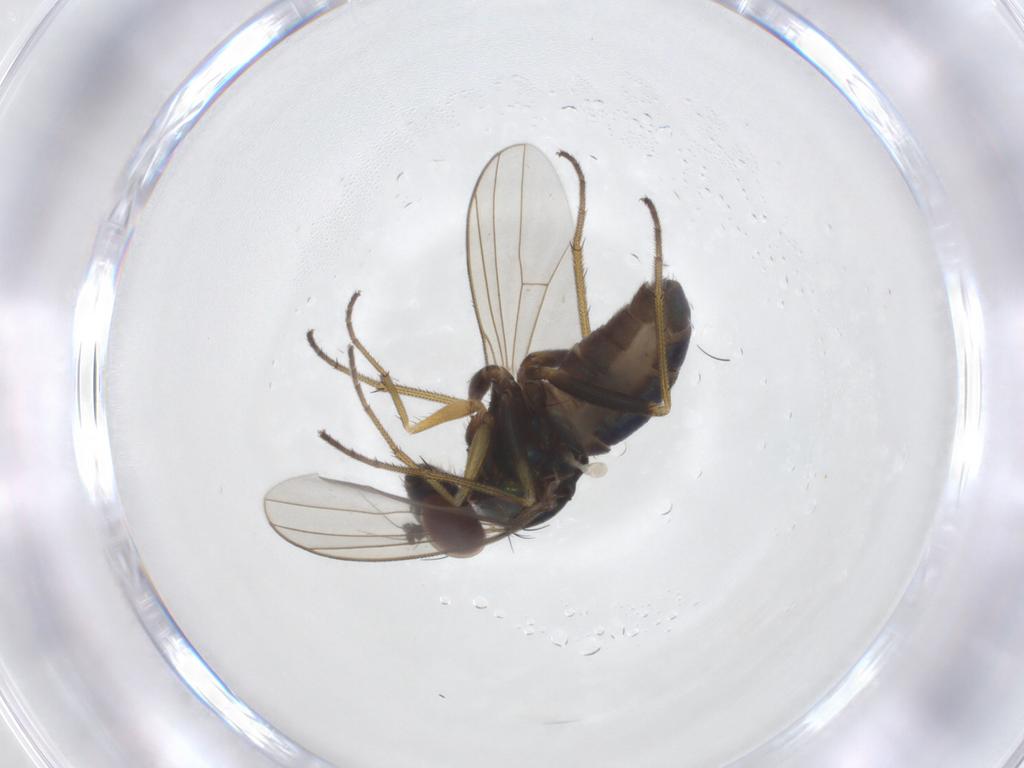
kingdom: Animalia
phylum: Arthropoda
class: Insecta
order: Diptera
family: Dolichopodidae
